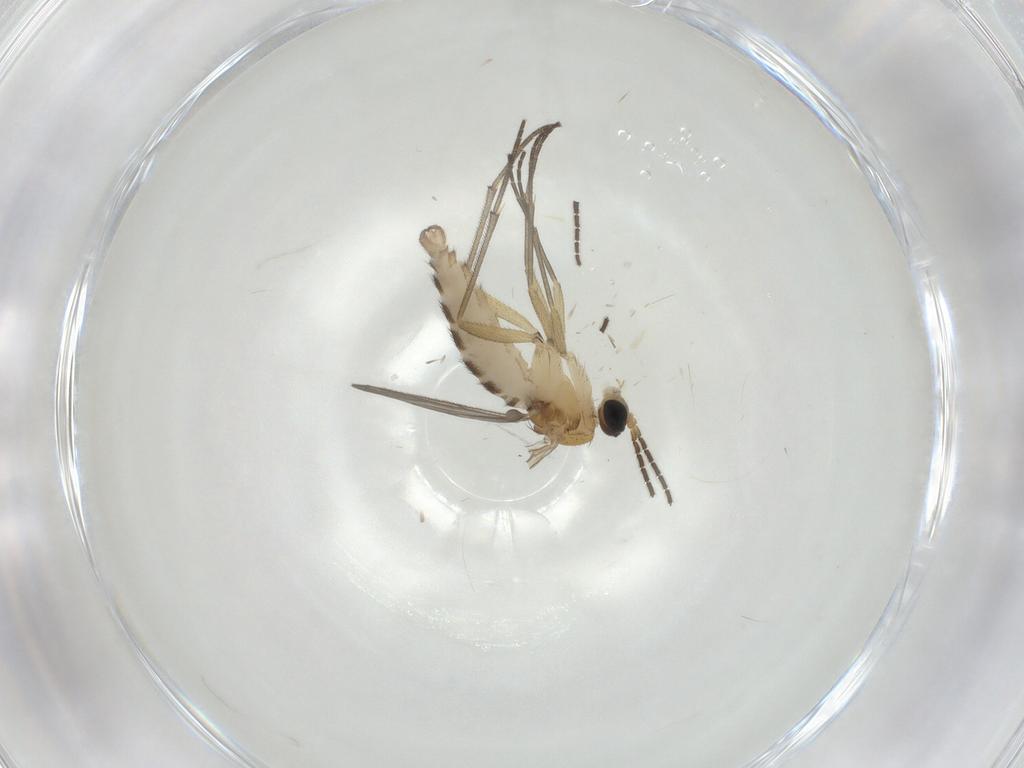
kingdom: Animalia
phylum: Arthropoda
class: Insecta
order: Diptera
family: Sciaridae
